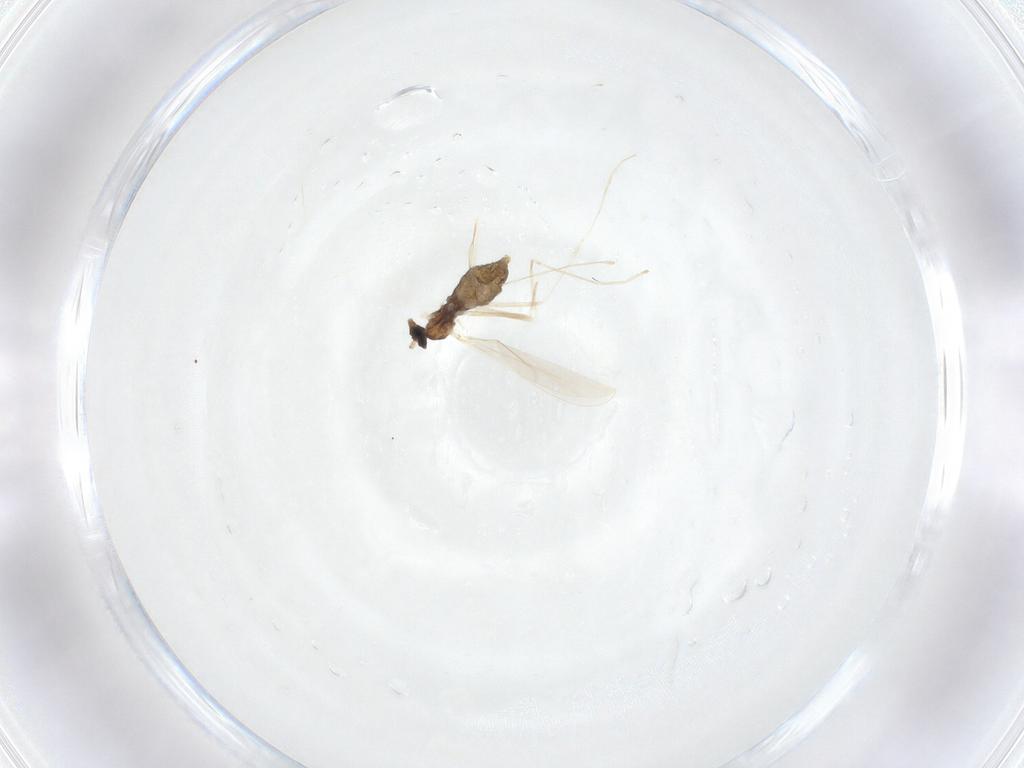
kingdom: Animalia
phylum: Arthropoda
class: Insecta
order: Diptera
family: Cecidomyiidae
